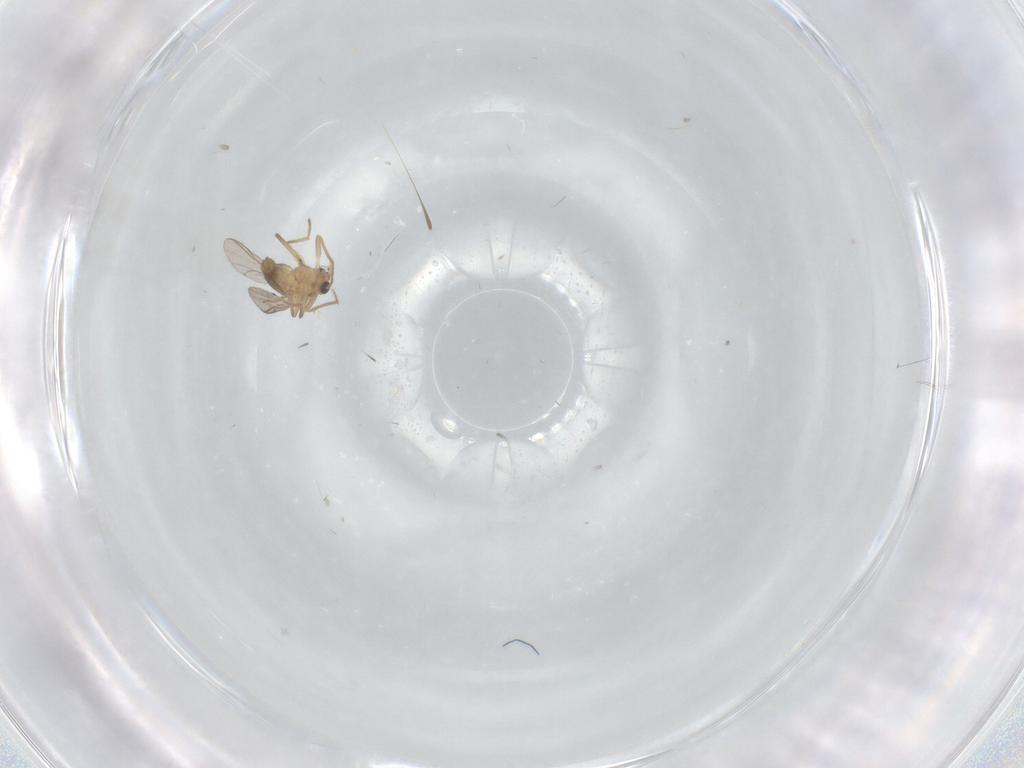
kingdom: Animalia
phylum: Arthropoda
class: Insecta
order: Diptera
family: Chironomidae
